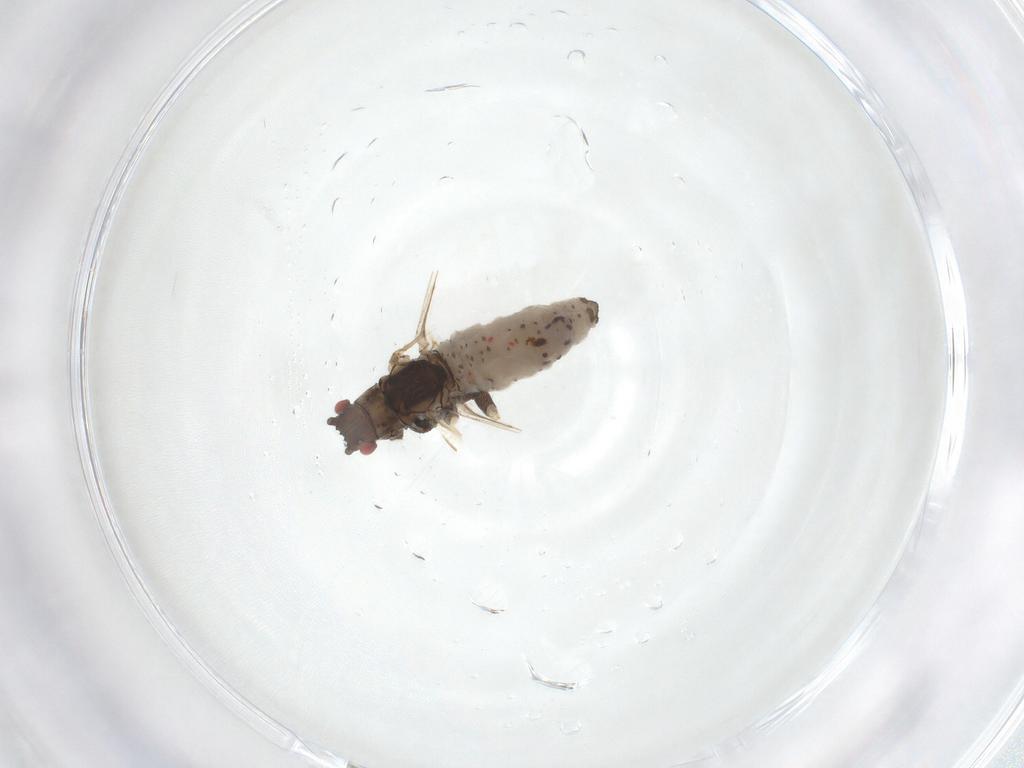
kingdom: Animalia
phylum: Arthropoda
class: Insecta
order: Hemiptera
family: Aphididae
